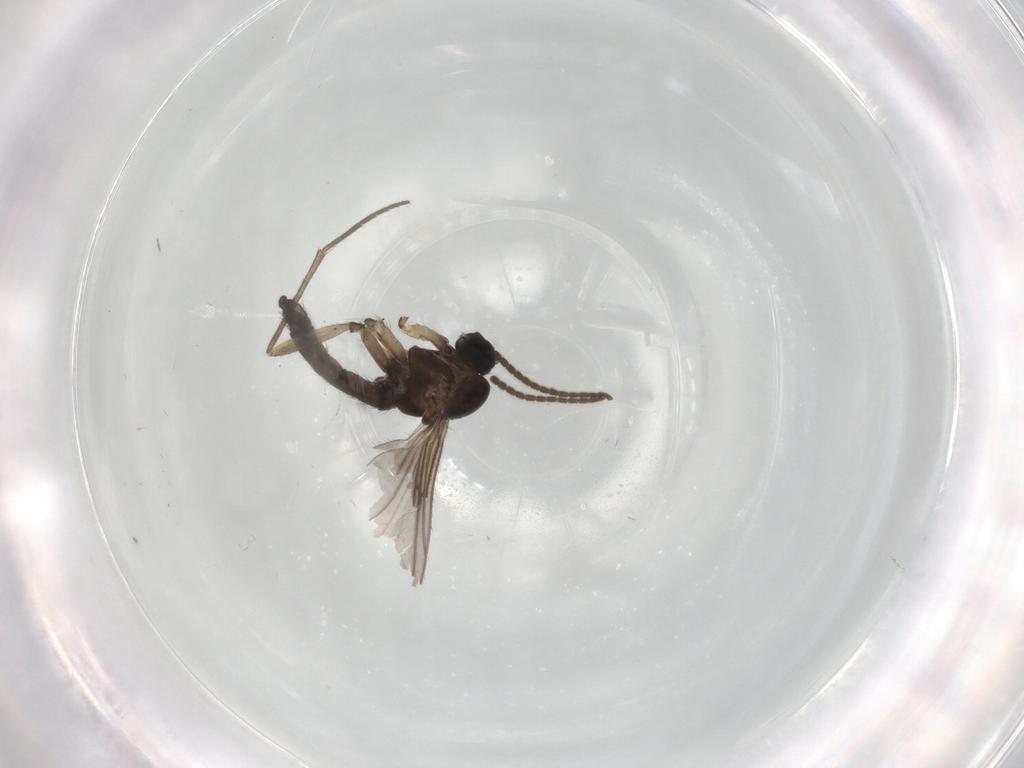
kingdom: Animalia
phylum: Arthropoda
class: Insecta
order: Diptera
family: Sciaridae
